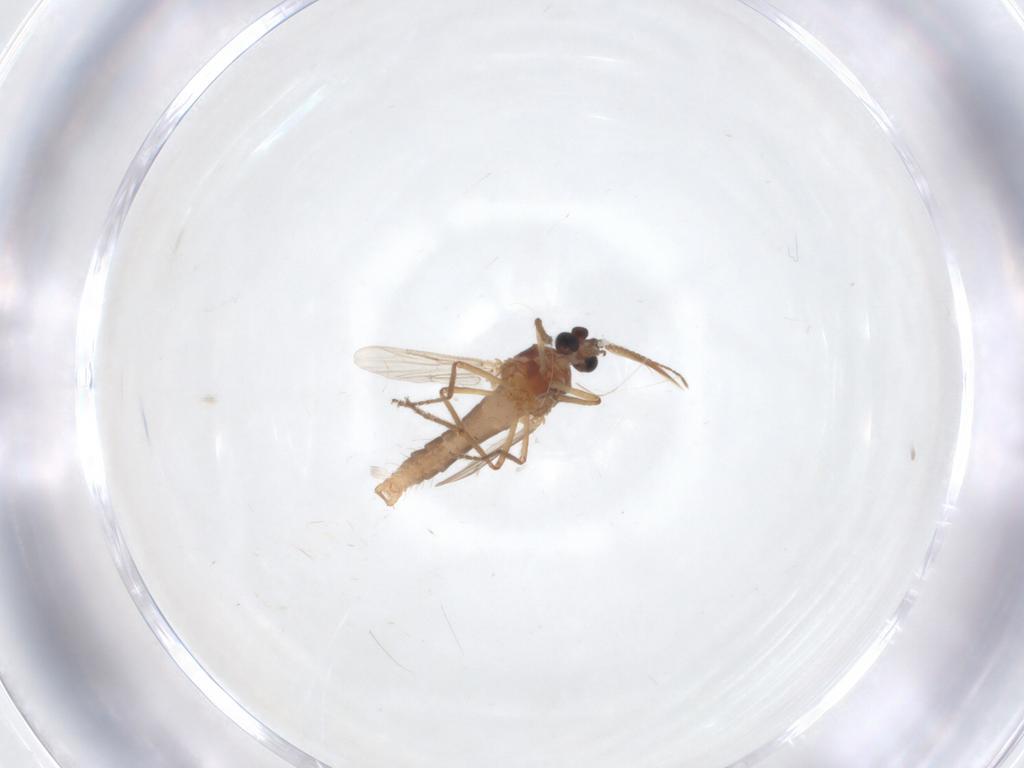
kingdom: Animalia
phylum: Arthropoda
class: Insecta
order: Diptera
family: Ceratopogonidae
